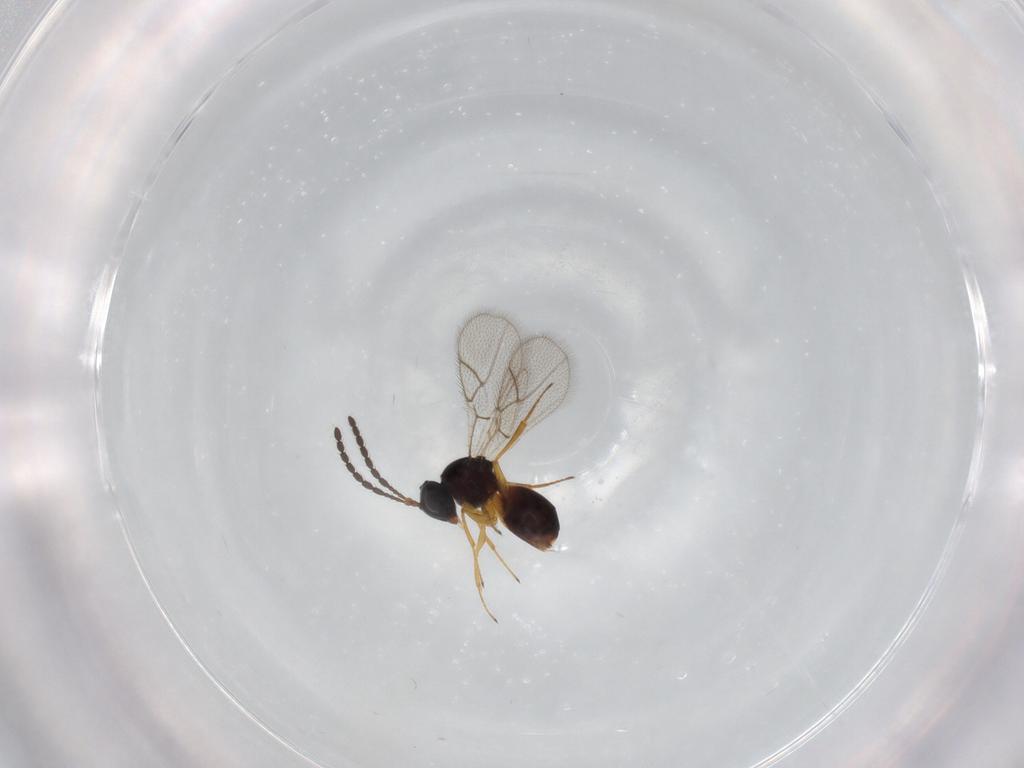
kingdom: Animalia
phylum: Arthropoda
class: Insecta
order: Hymenoptera
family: Figitidae
